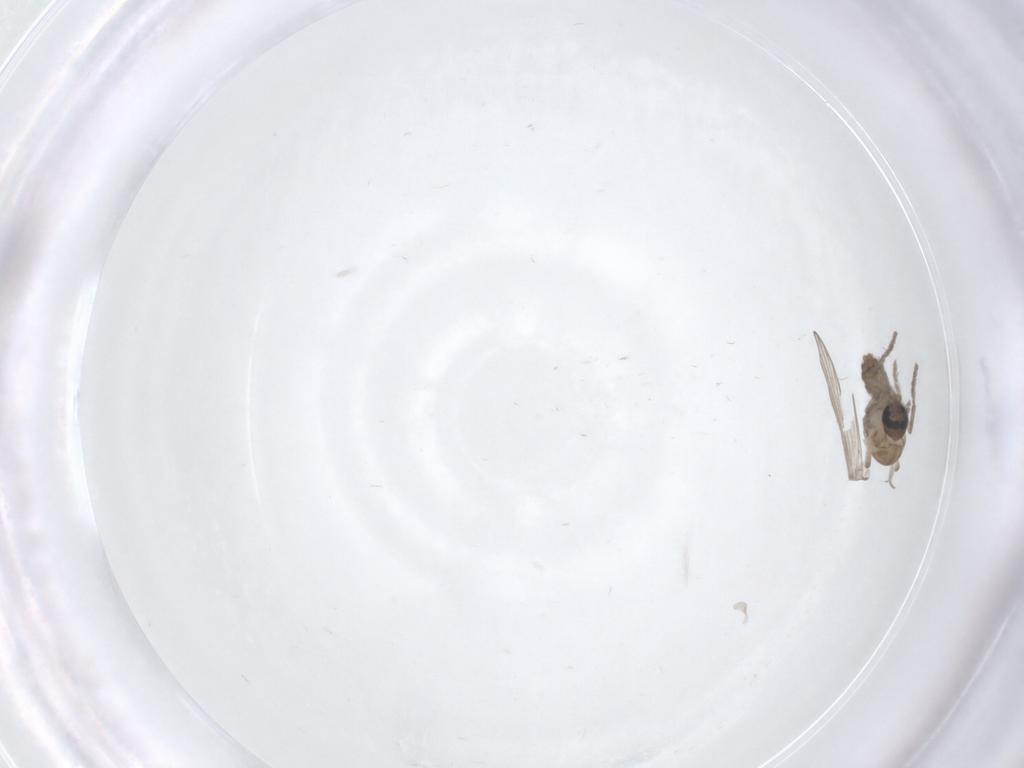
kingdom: Animalia
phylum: Arthropoda
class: Insecta
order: Diptera
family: Psychodidae
